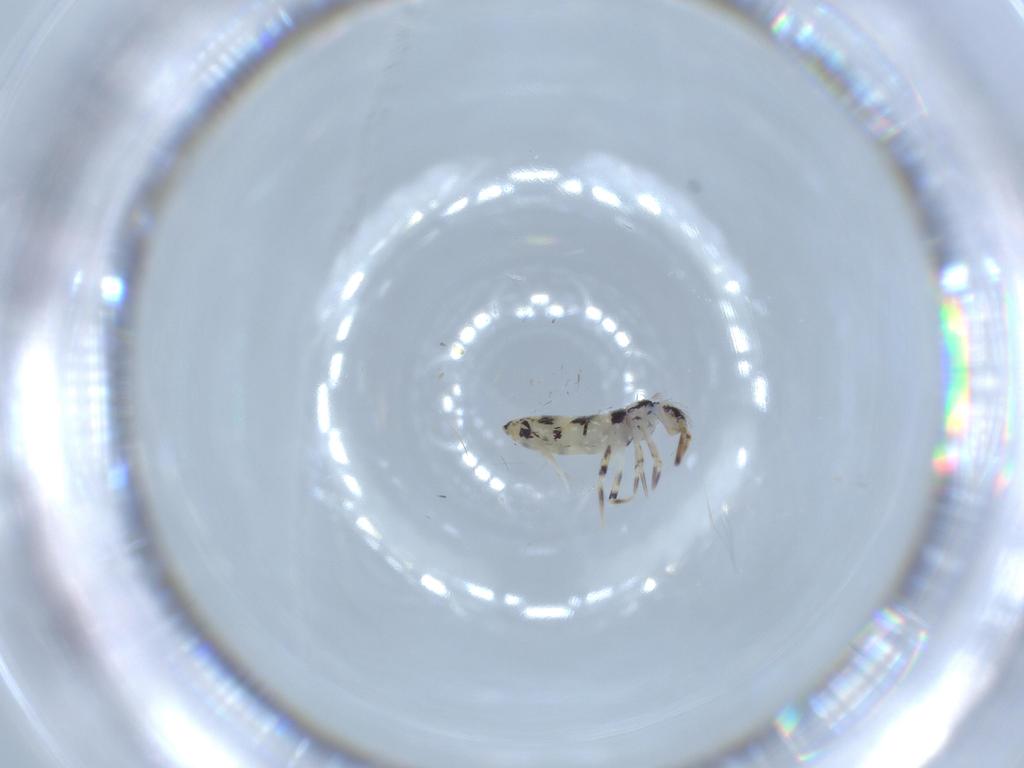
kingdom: Animalia
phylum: Arthropoda
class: Collembola
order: Entomobryomorpha
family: Entomobryidae
